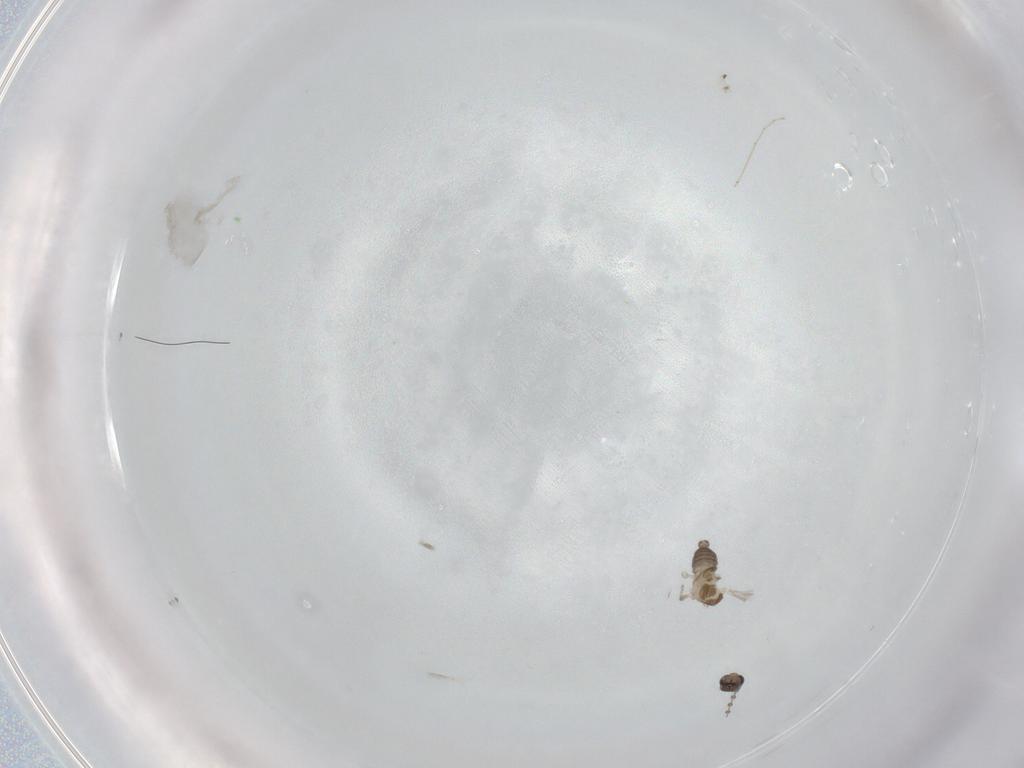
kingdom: Animalia
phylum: Arthropoda
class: Insecta
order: Diptera
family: Cecidomyiidae
